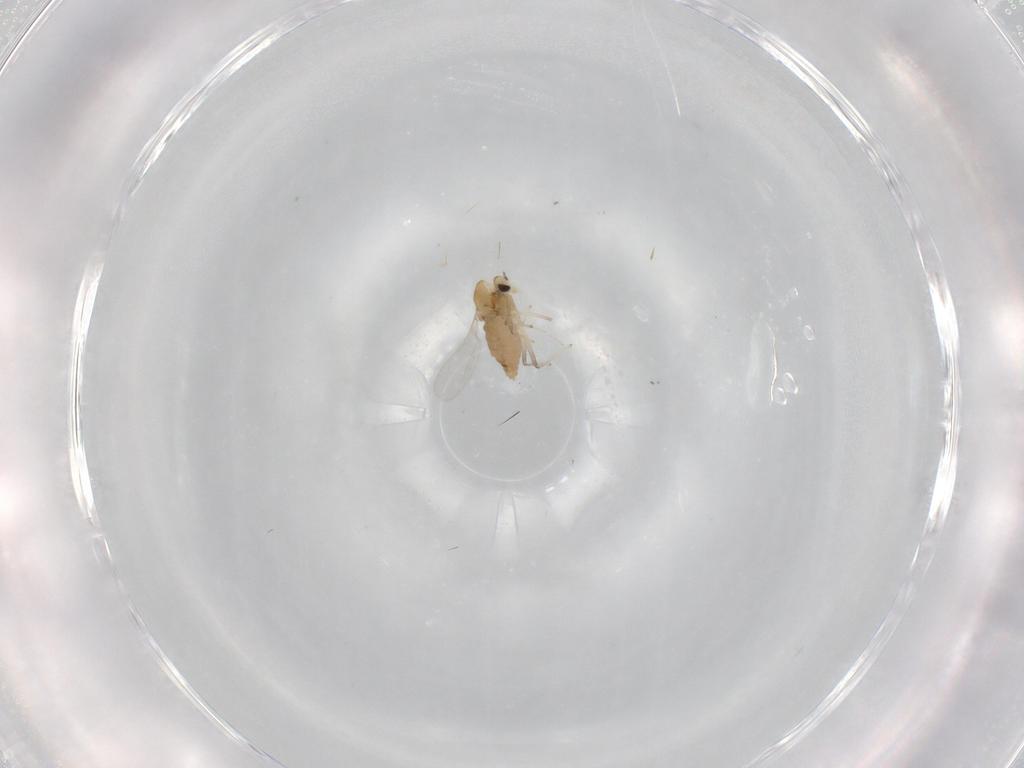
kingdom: Animalia
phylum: Arthropoda
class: Insecta
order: Diptera
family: Chironomidae
